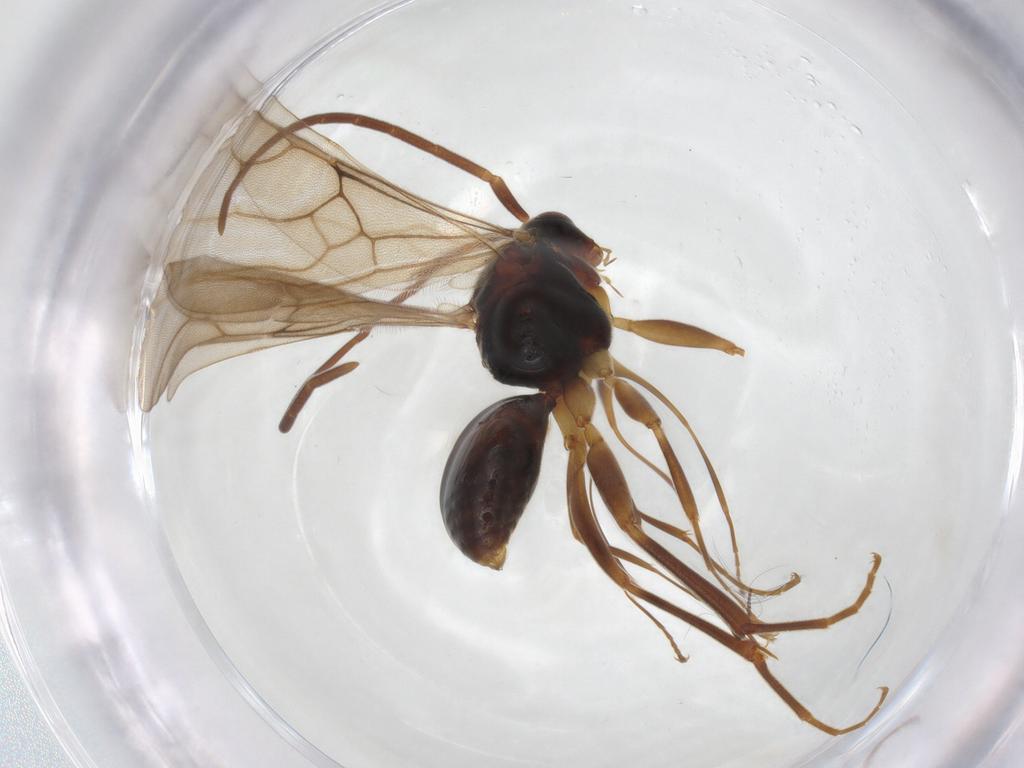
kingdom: Animalia
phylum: Arthropoda
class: Insecta
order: Hymenoptera
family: Embolemidae
